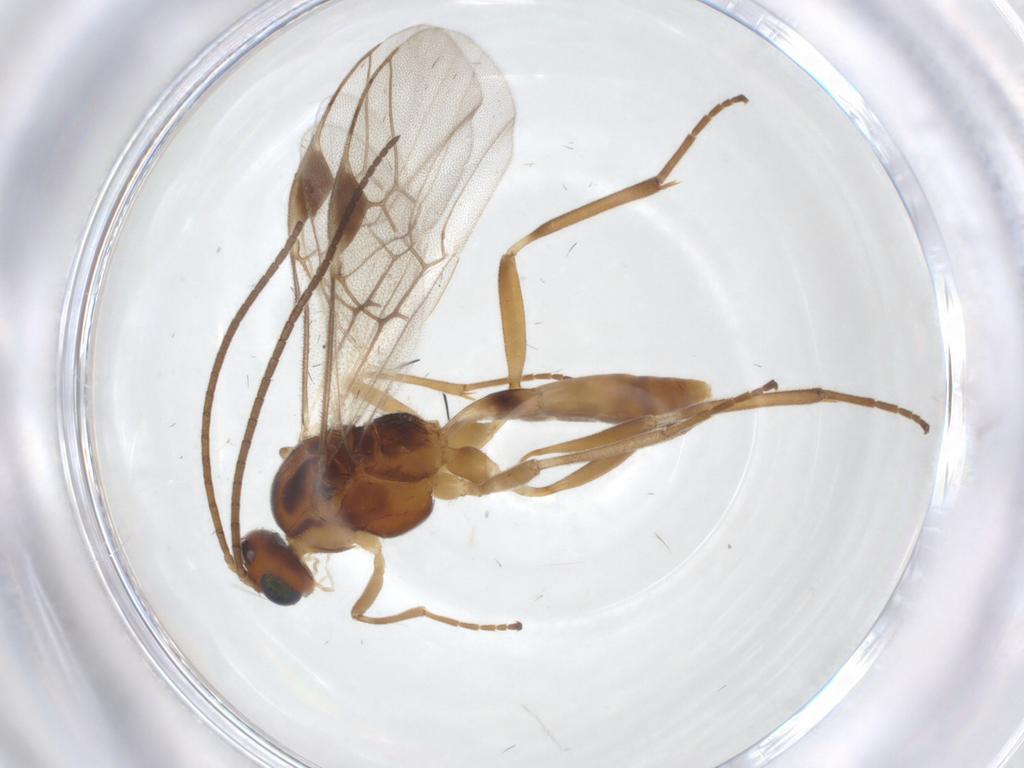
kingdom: Animalia
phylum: Arthropoda
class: Insecta
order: Hymenoptera
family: Braconidae
